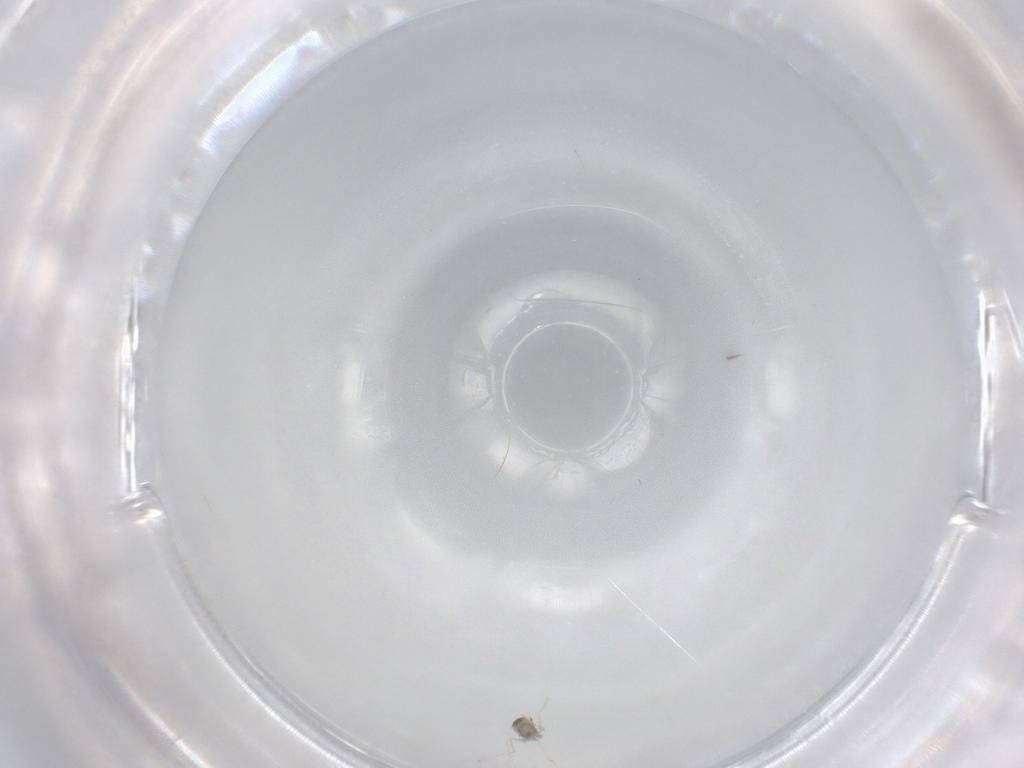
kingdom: Animalia
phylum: Arthropoda
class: Insecta
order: Diptera
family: Cecidomyiidae
